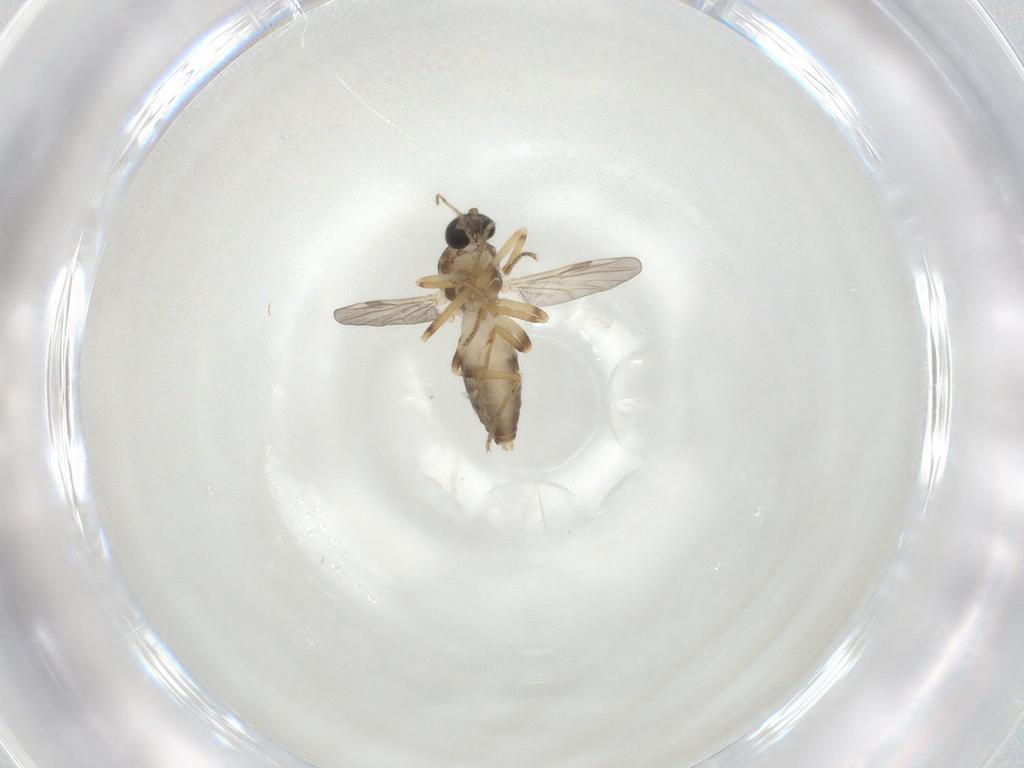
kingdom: Animalia
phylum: Arthropoda
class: Insecta
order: Diptera
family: Ceratopogonidae
